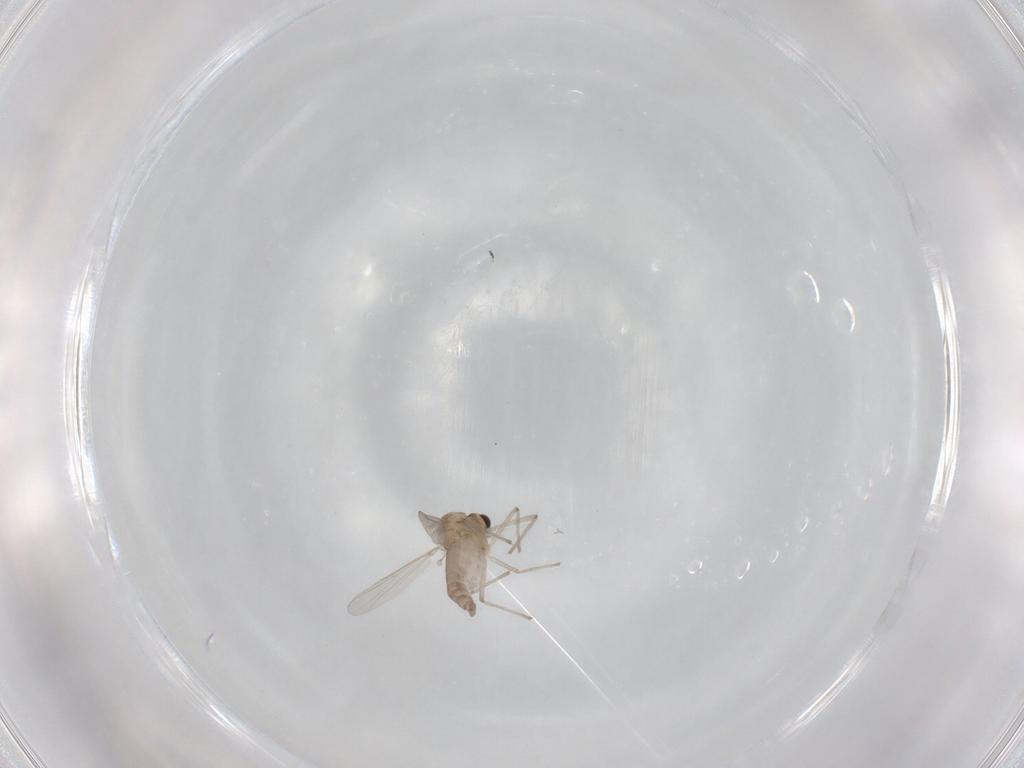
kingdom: Animalia
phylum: Arthropoda
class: Insecta
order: Diptera
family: Chironomidae
